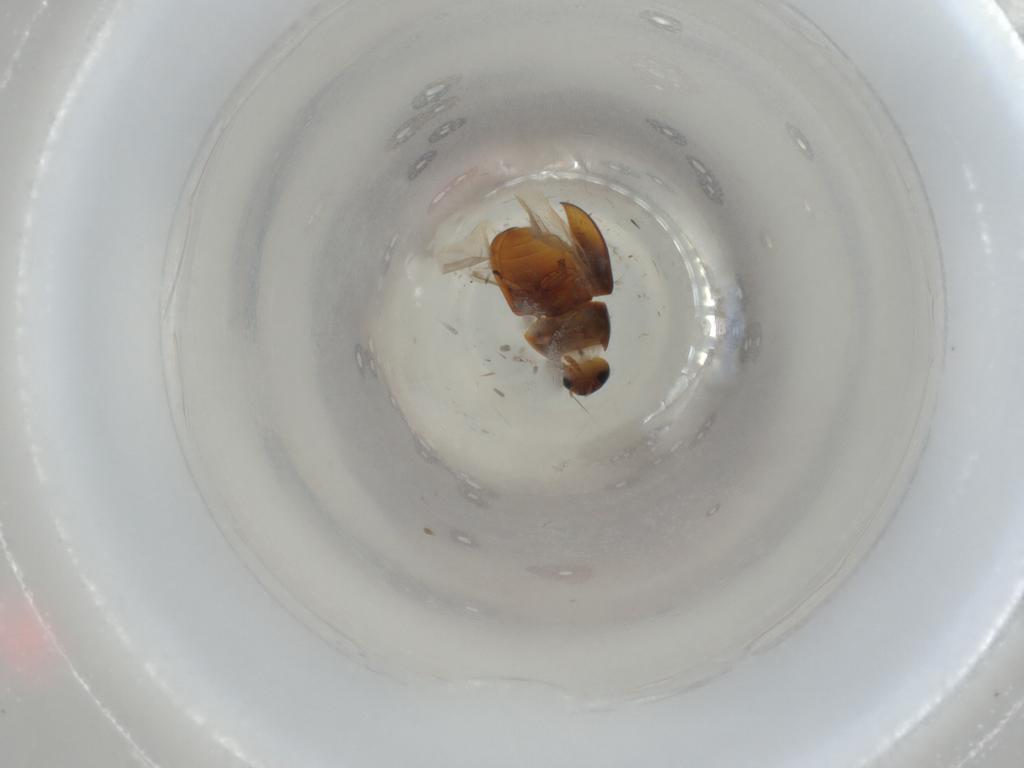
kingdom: Animalia
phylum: Arthropoda
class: Insecta
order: Coleoptera
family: Phalacridae
